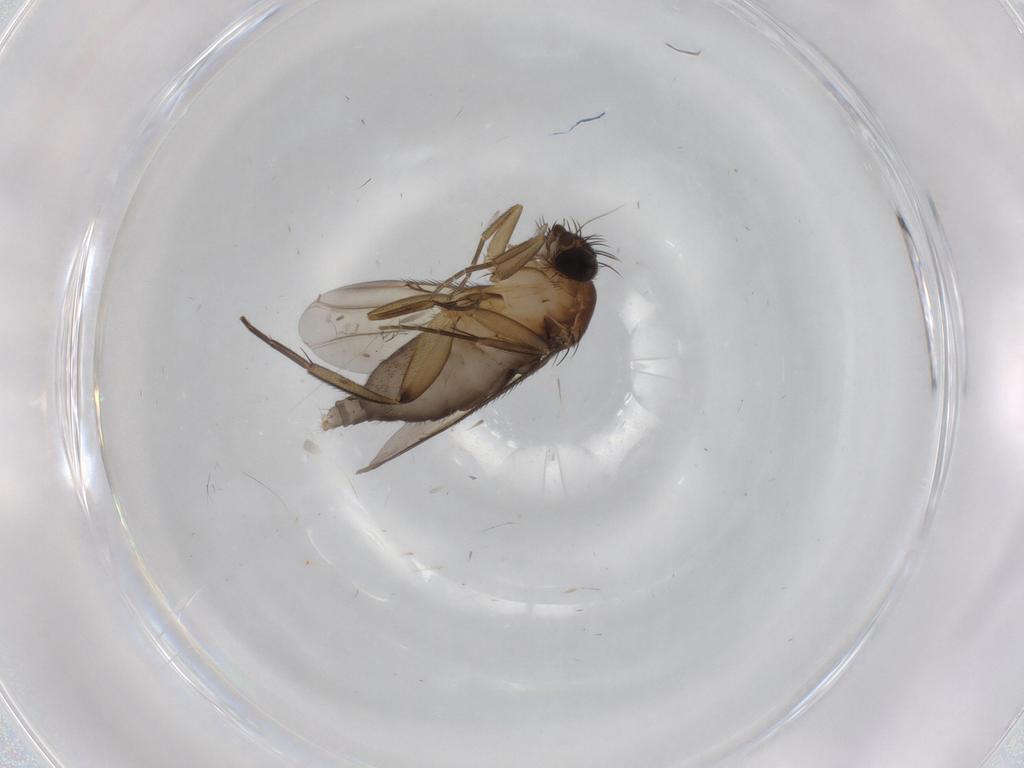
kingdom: Animalia
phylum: Arthropoda
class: Insecta
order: Diptera
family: Phoridae
